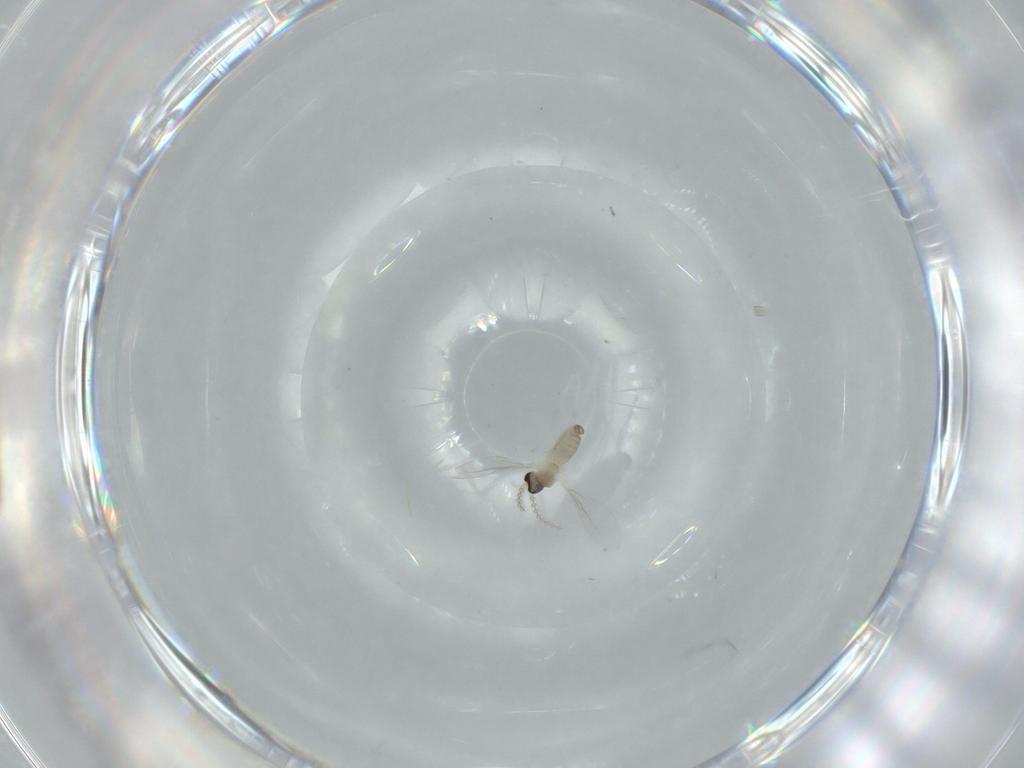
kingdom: Animalia
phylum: Arthropoda
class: Insecta
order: Diptera
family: Cecidomyiidae
